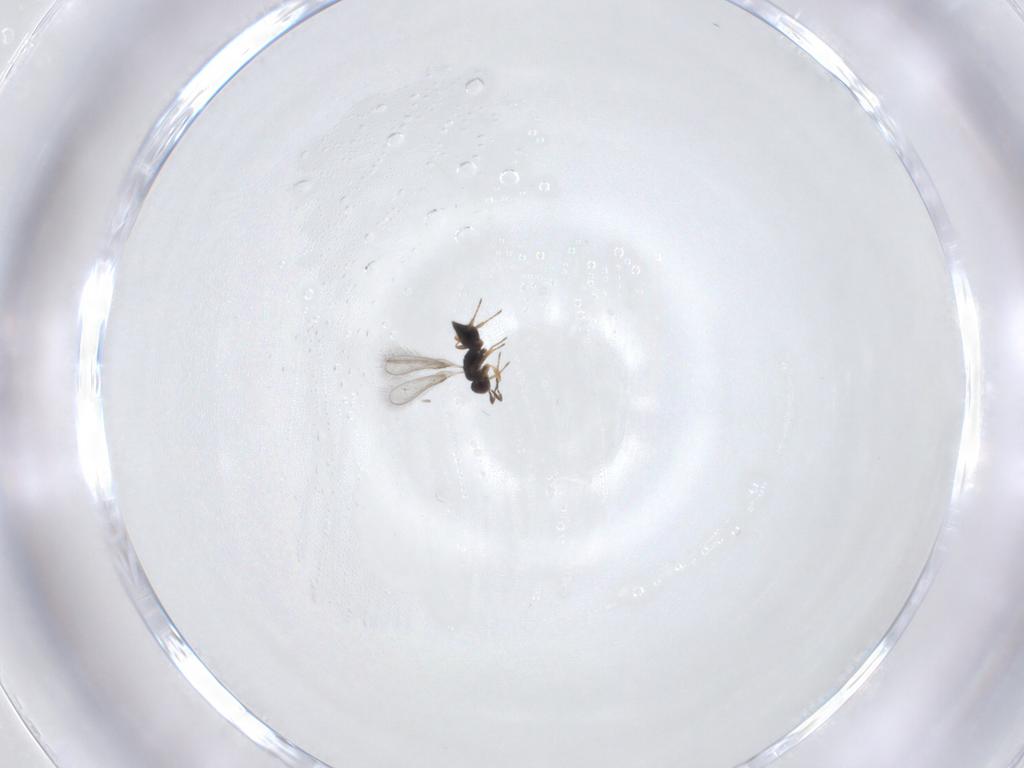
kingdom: Animalia
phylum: Arthropoda
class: Insecta
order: Hymenoptera
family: Mymaridae
